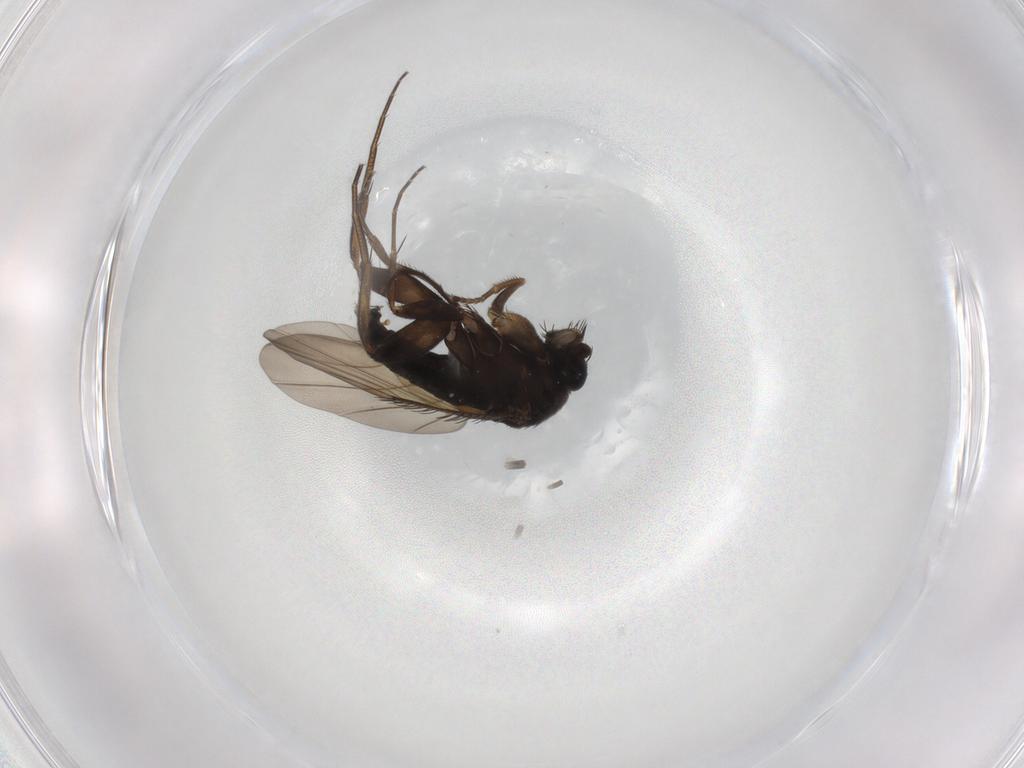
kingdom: Animalia
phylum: Arthropoda
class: Insecta
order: Diptera
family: Phoridae
